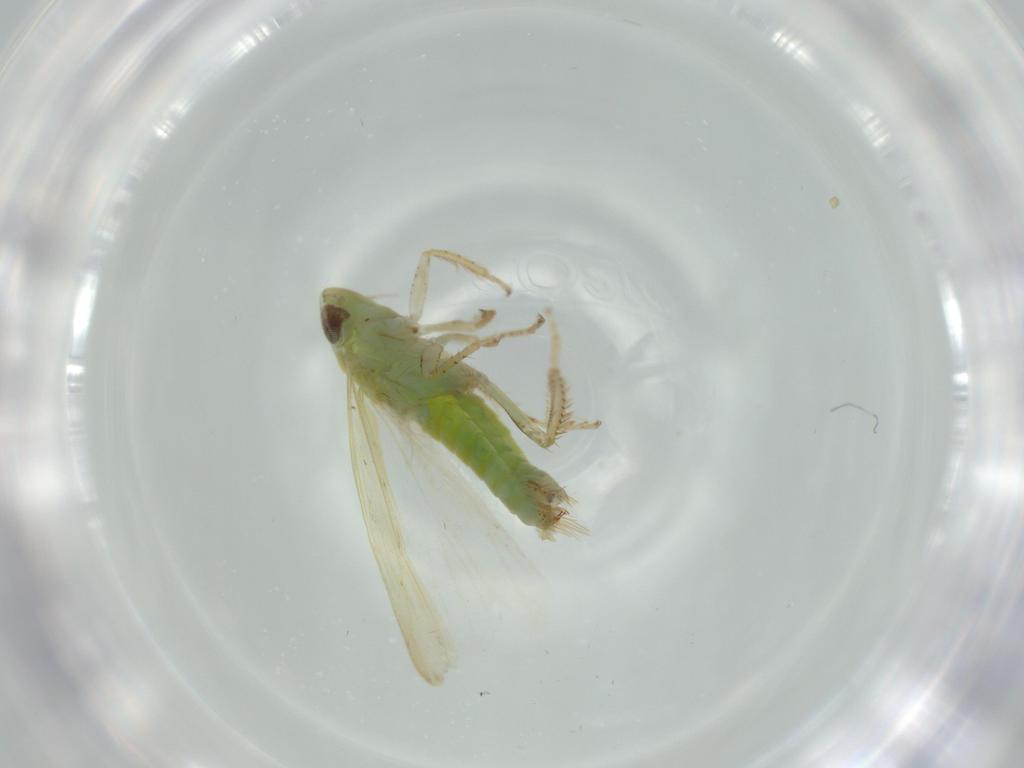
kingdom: Animalia
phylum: Arthropoda
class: Insecta
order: Hemiptera
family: Cicadellidae
